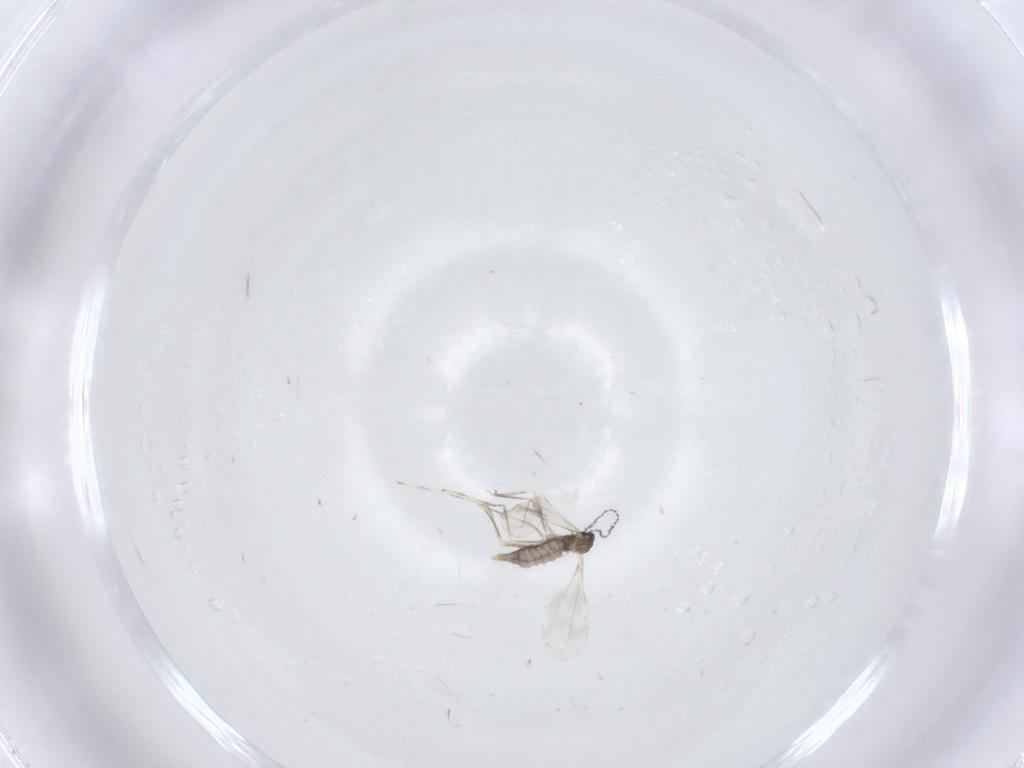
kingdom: Animalia
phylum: Arthropoda
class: Insecta
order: Diptera
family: Cecidomyiidae
